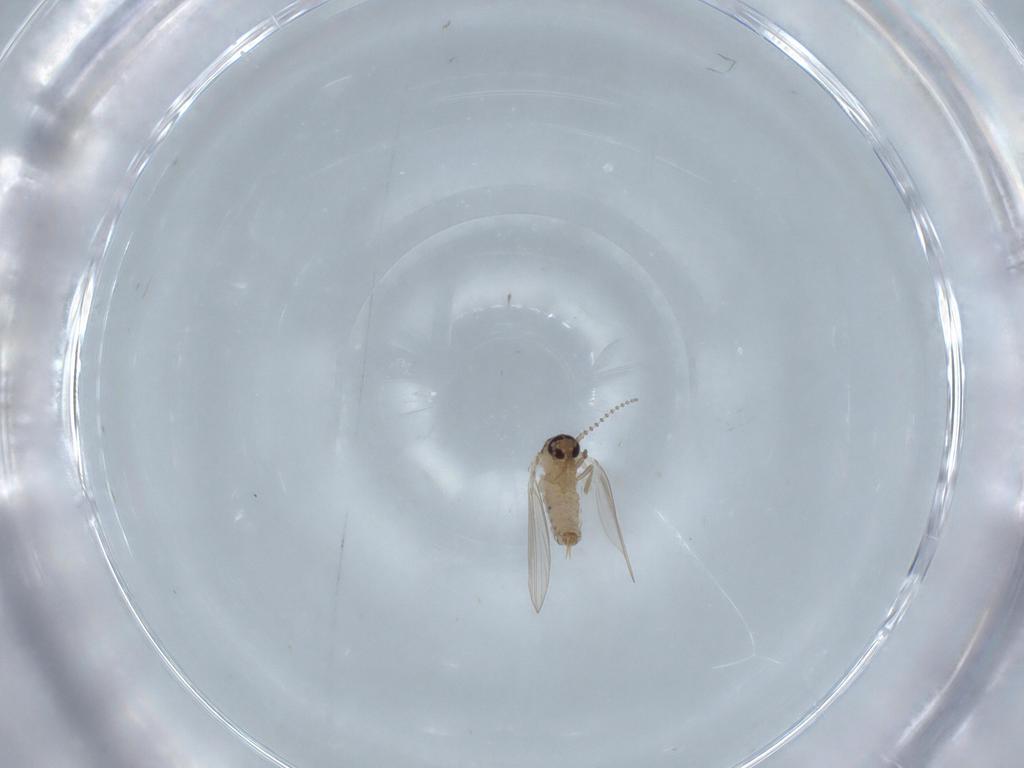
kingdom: Animalia
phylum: Arthropoda
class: Insecta
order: Diptera
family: Psychodidae
